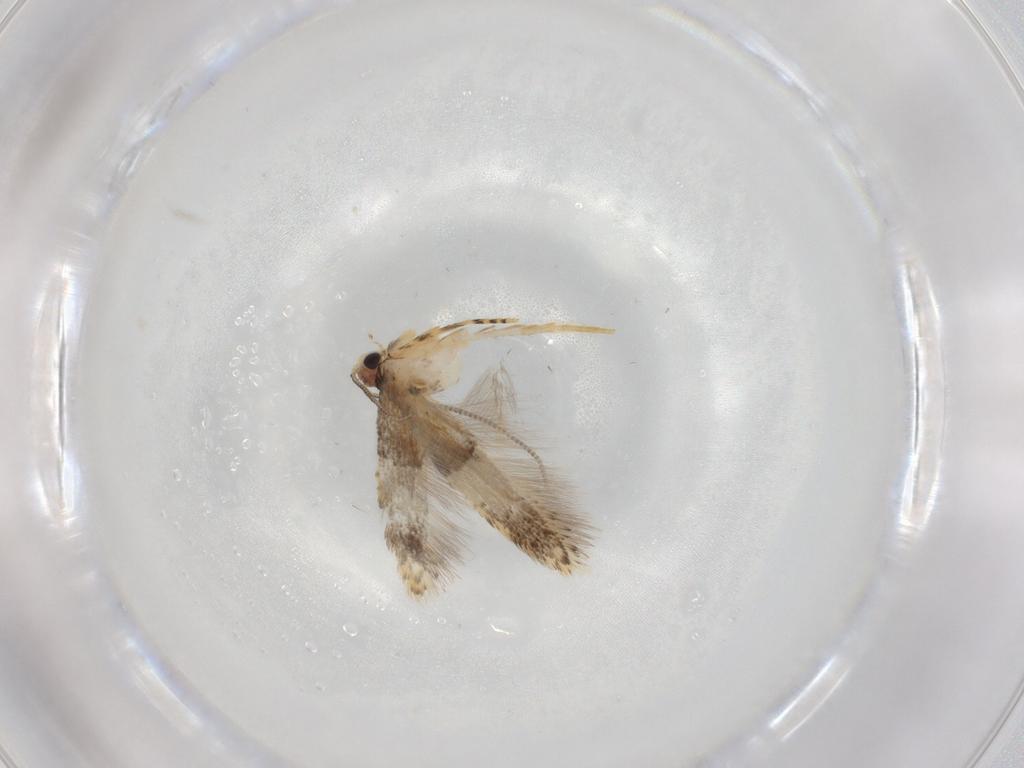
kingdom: Animalia
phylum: Arthropoda
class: Insecta
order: Lepidoptera
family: Tineidae
